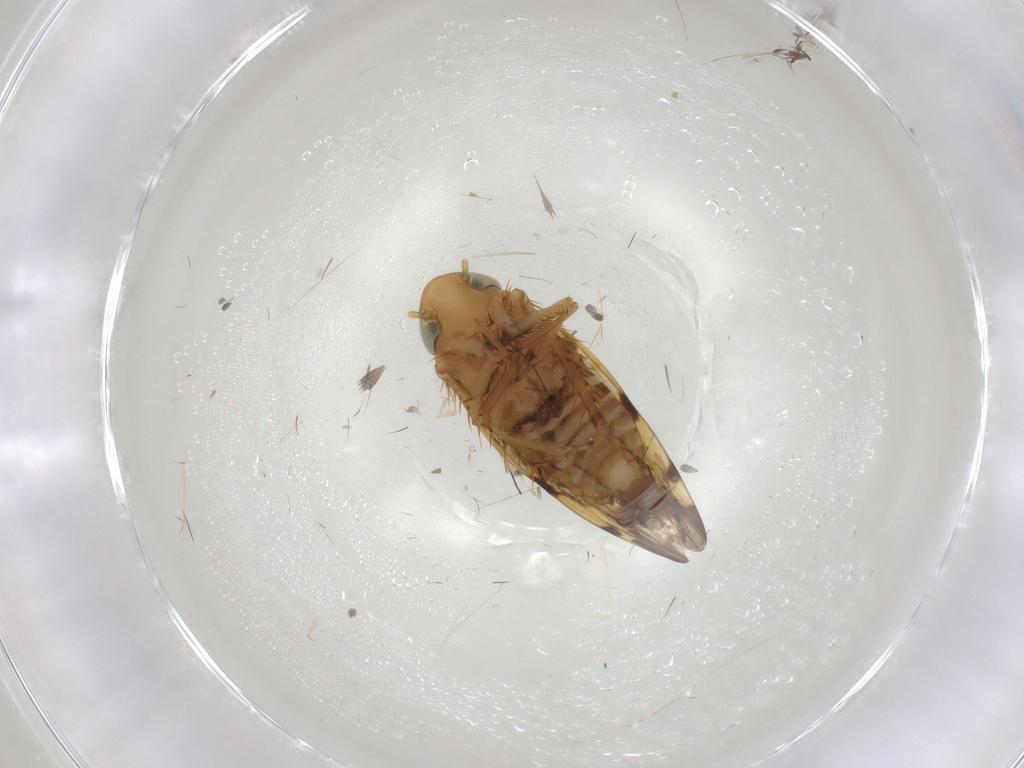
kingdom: Animalia
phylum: Arthropoda
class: Insecta
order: Hemiptera
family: Cicadellidae
